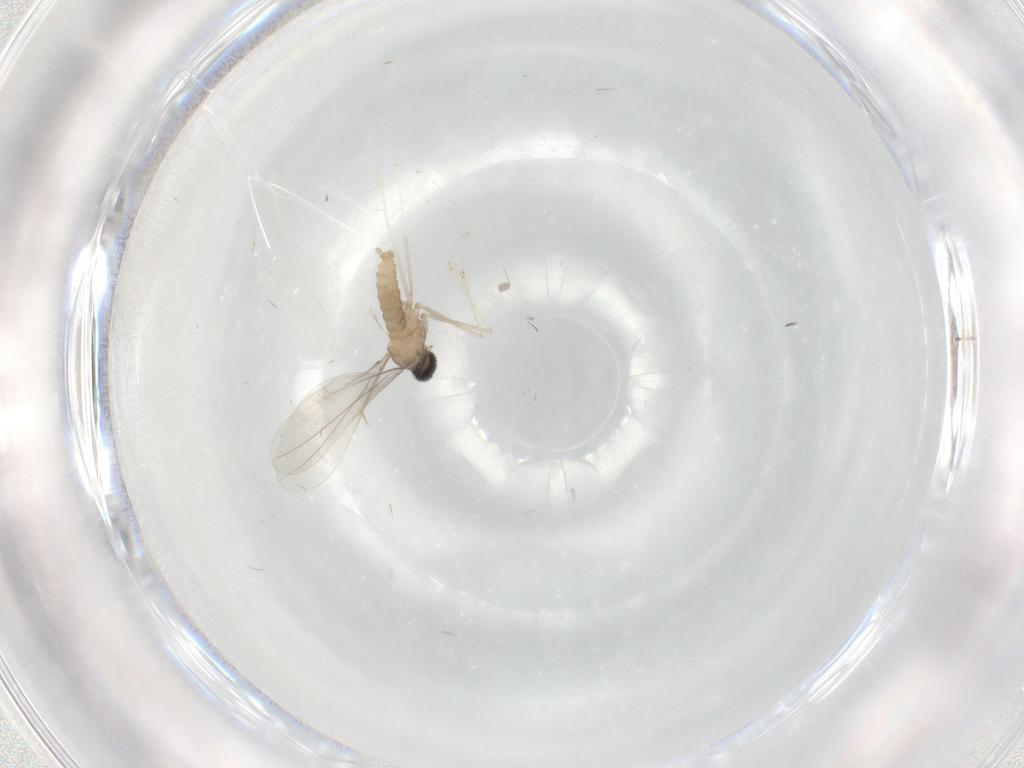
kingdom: Animalia
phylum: Arthropoda
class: Insecta
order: Diptera
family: Cecidomyiidae
